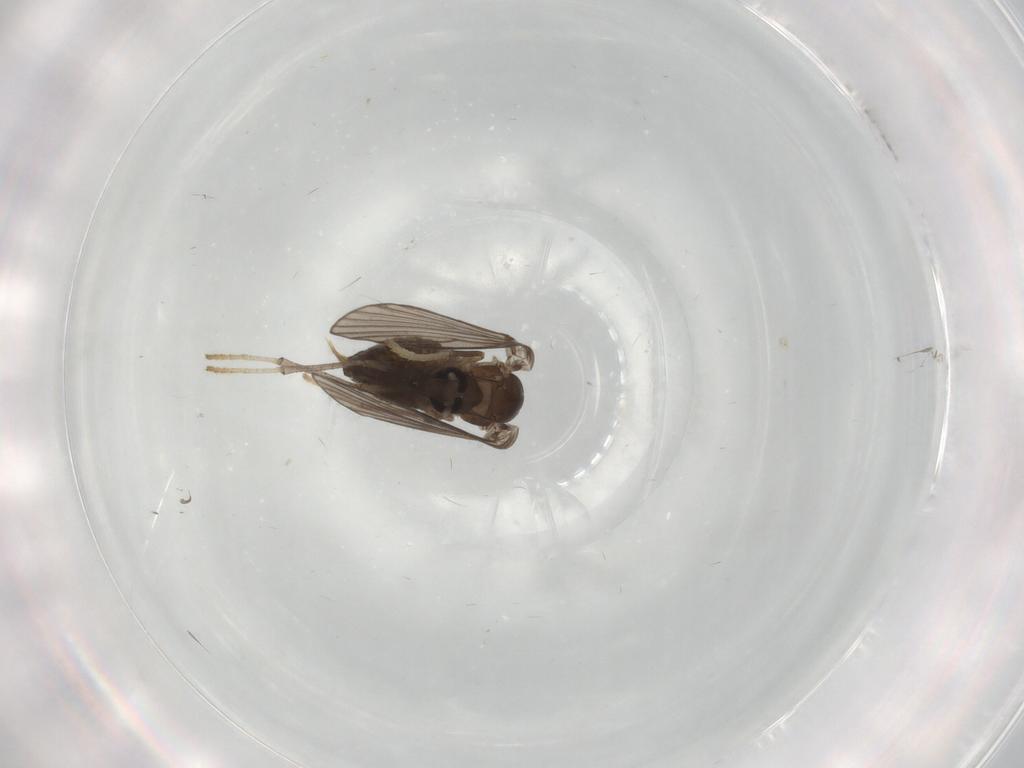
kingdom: Animalia
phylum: Arthropoda
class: Insecta
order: Diptera
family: Psychodidae
